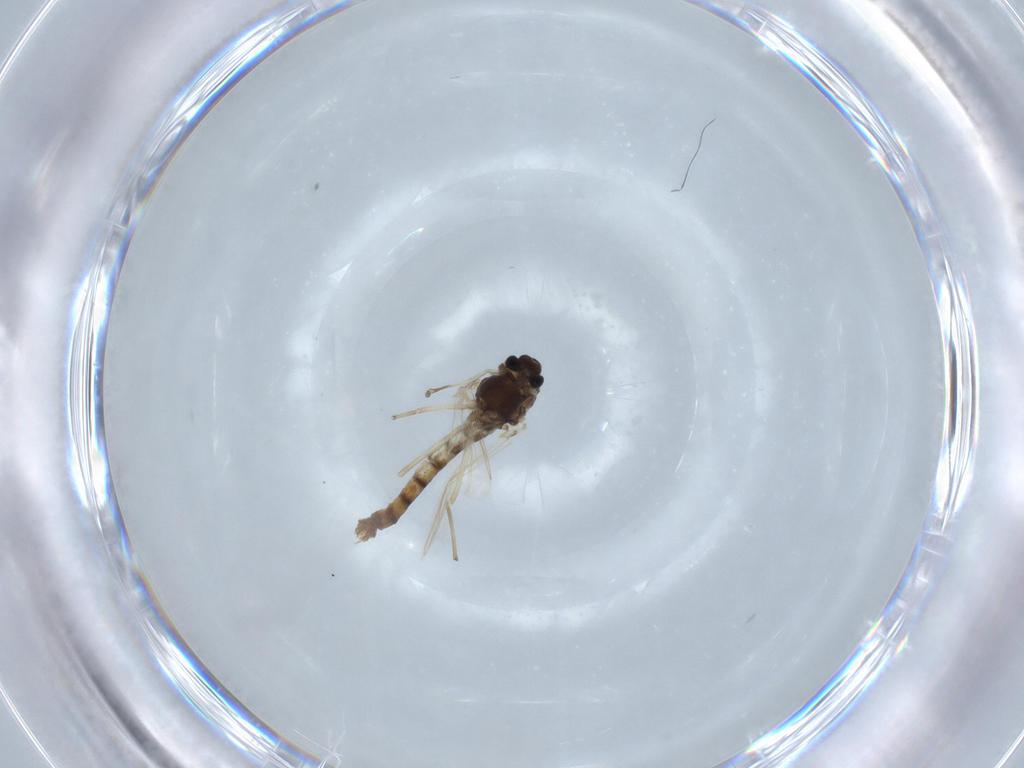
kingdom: Animalia
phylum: Arthropoda
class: Insecta
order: Diptera
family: Chironomidae
